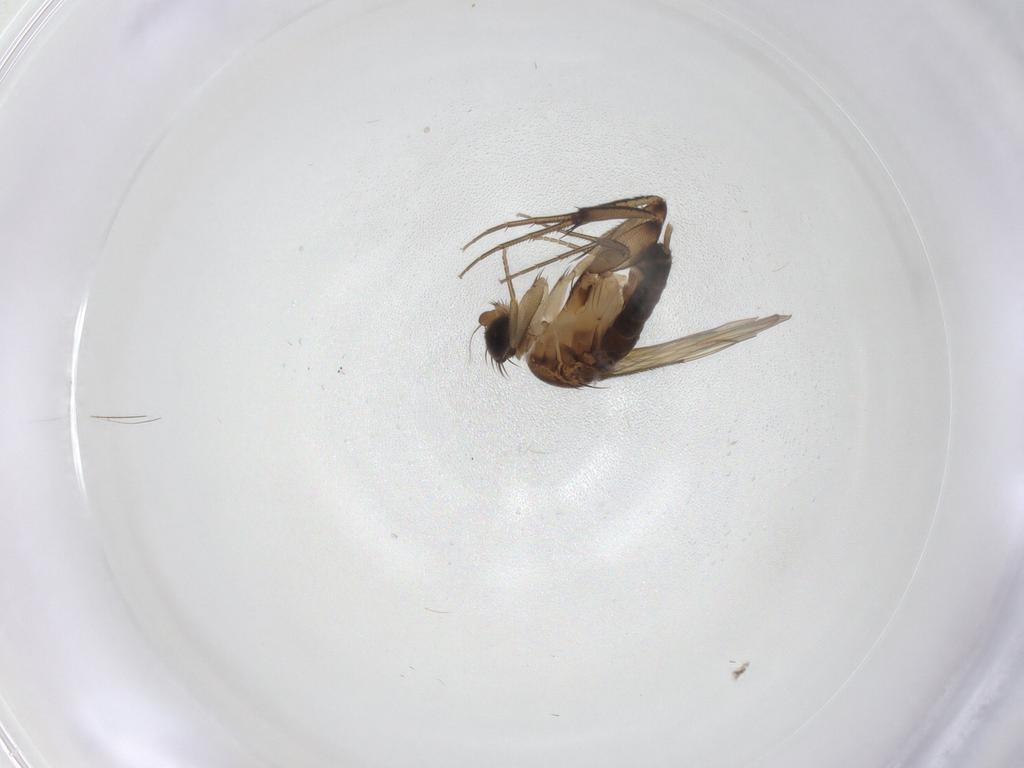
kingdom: Animalia
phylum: Arthropoda
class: Insecta
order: Diptera
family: Phoridae
